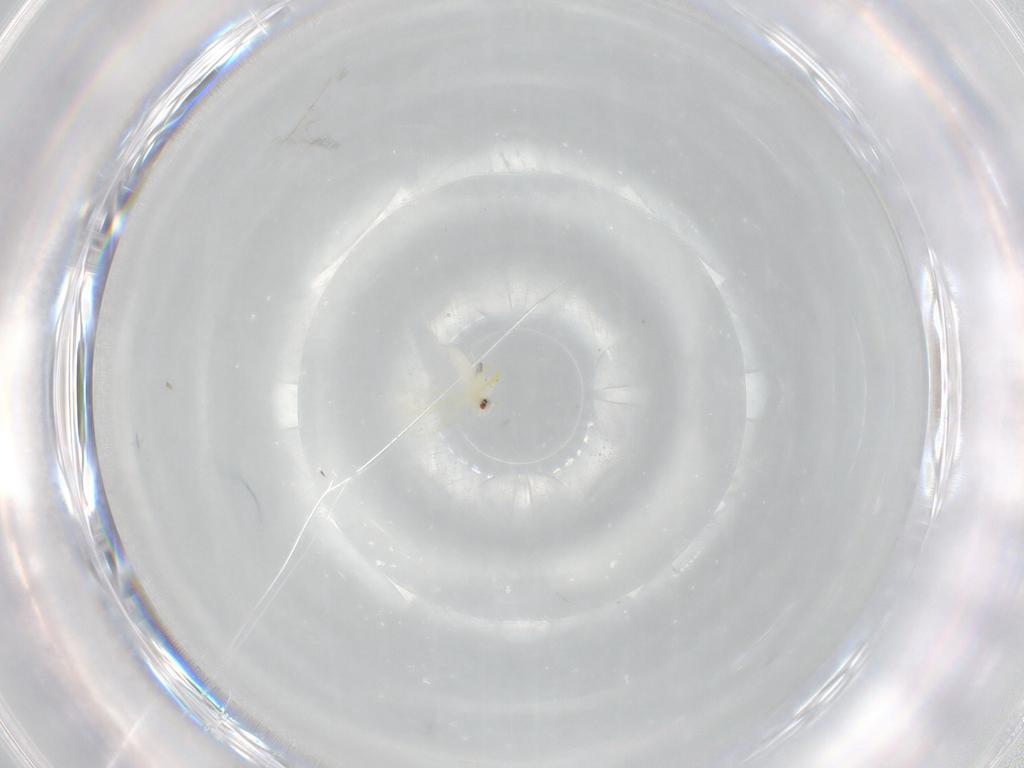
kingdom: Animalia
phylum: Arthropoda
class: Insecta
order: Hemiptera
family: Aleyrodidae
